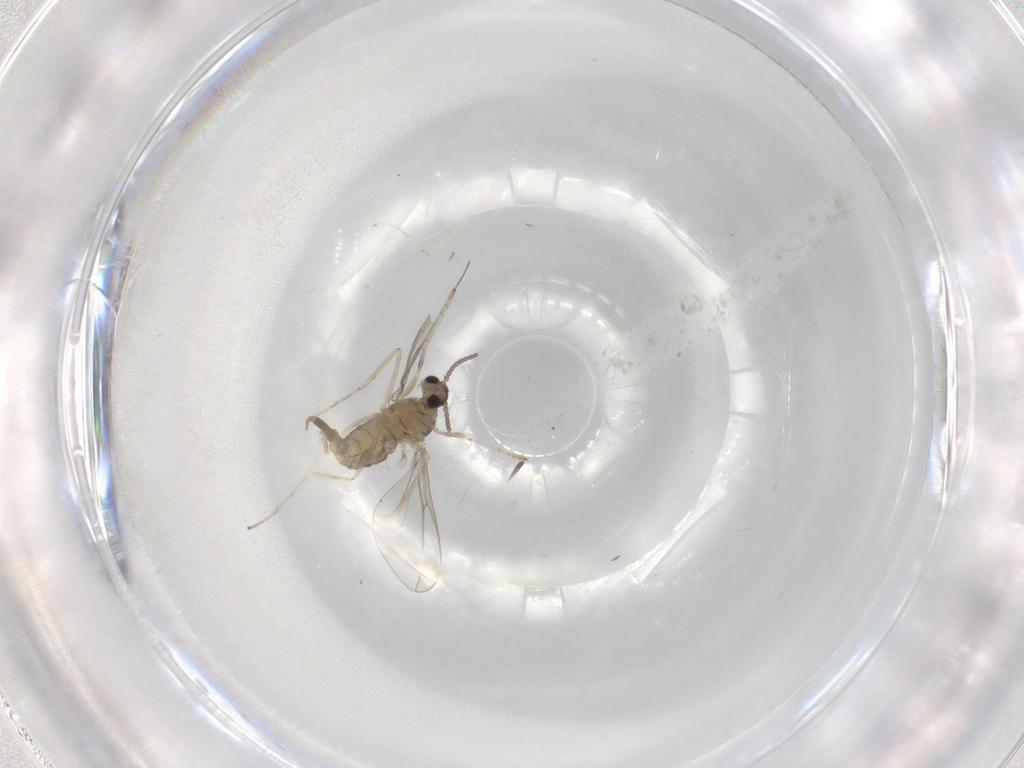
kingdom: Animalia
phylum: Arthropoda
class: Insecta
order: Diptera
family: Cecidomyiidae
